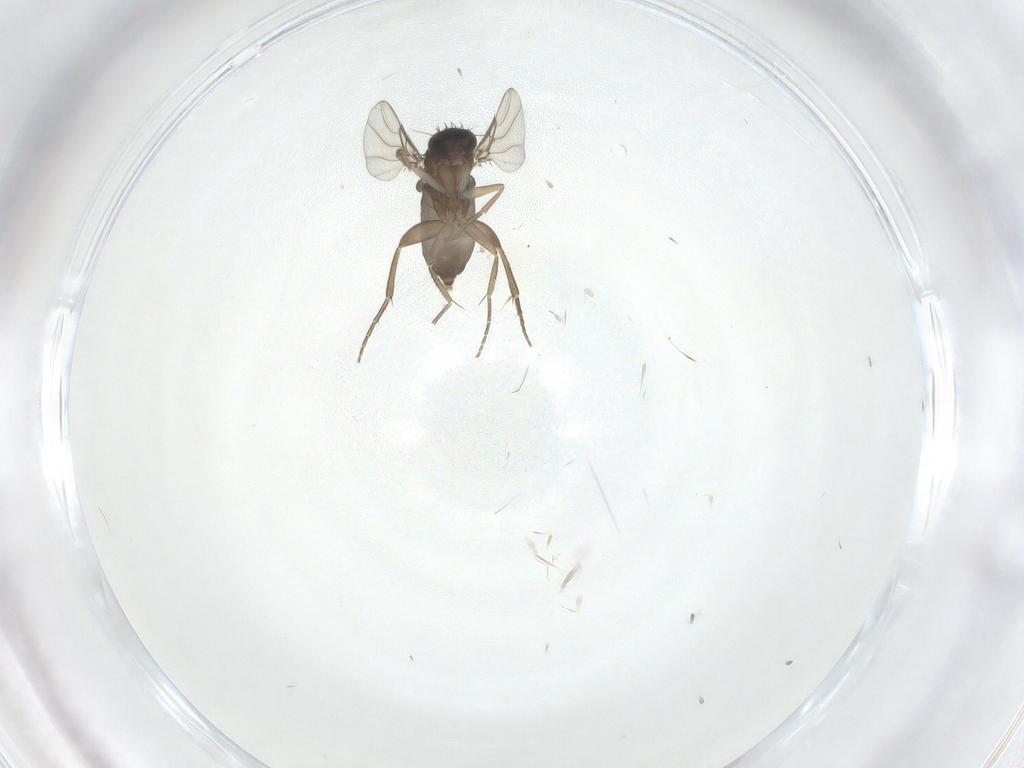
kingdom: Animalia
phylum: Arthropoda
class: Insecta
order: Diptera
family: Phoridae
